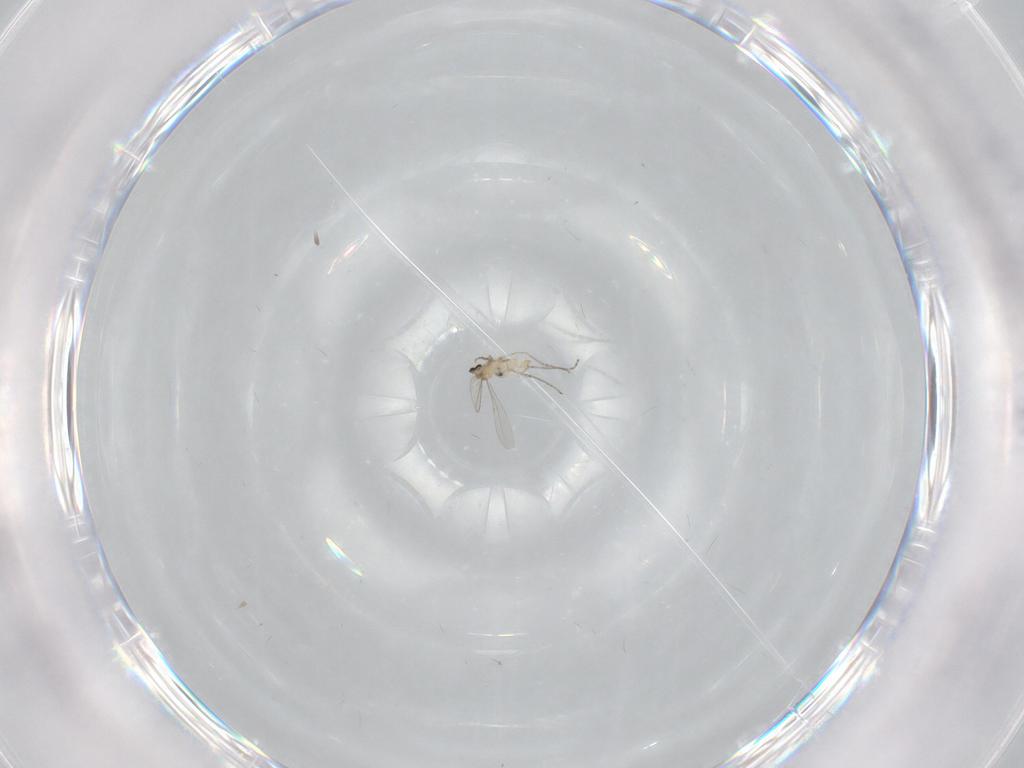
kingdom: Animalia
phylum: Arthropoda
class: Insecta
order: Diptera
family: Cecidomyiidae
